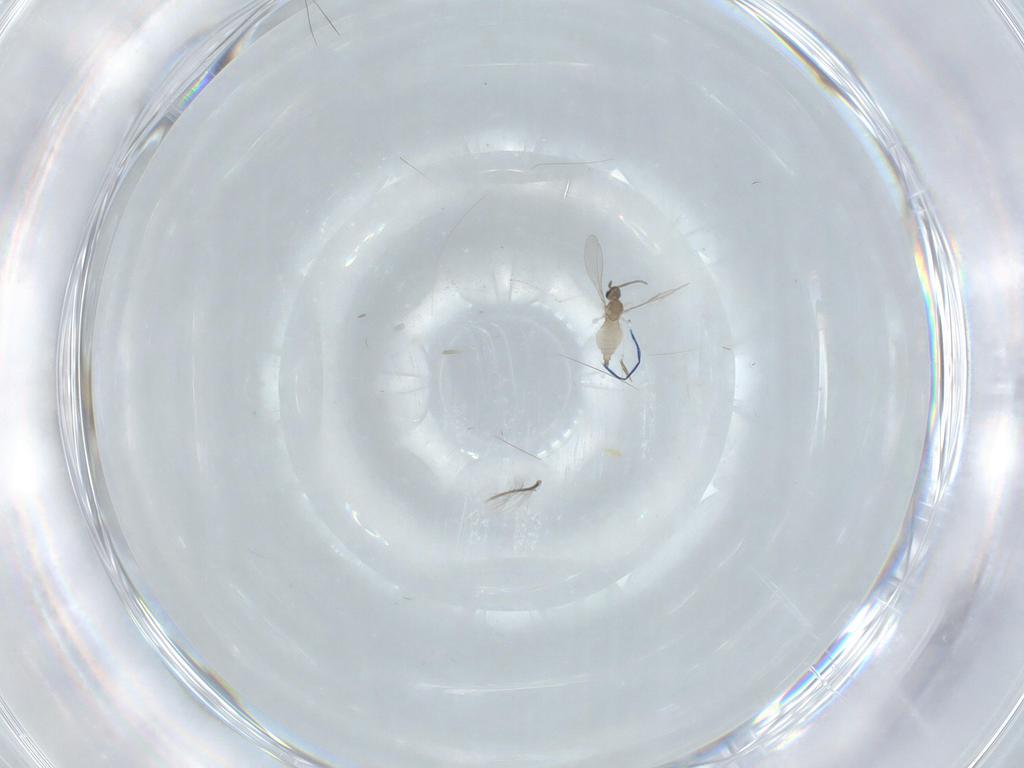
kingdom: Animalia
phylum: Arthropoda
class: Insecta
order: Diptera
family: Cecidomyiidae
